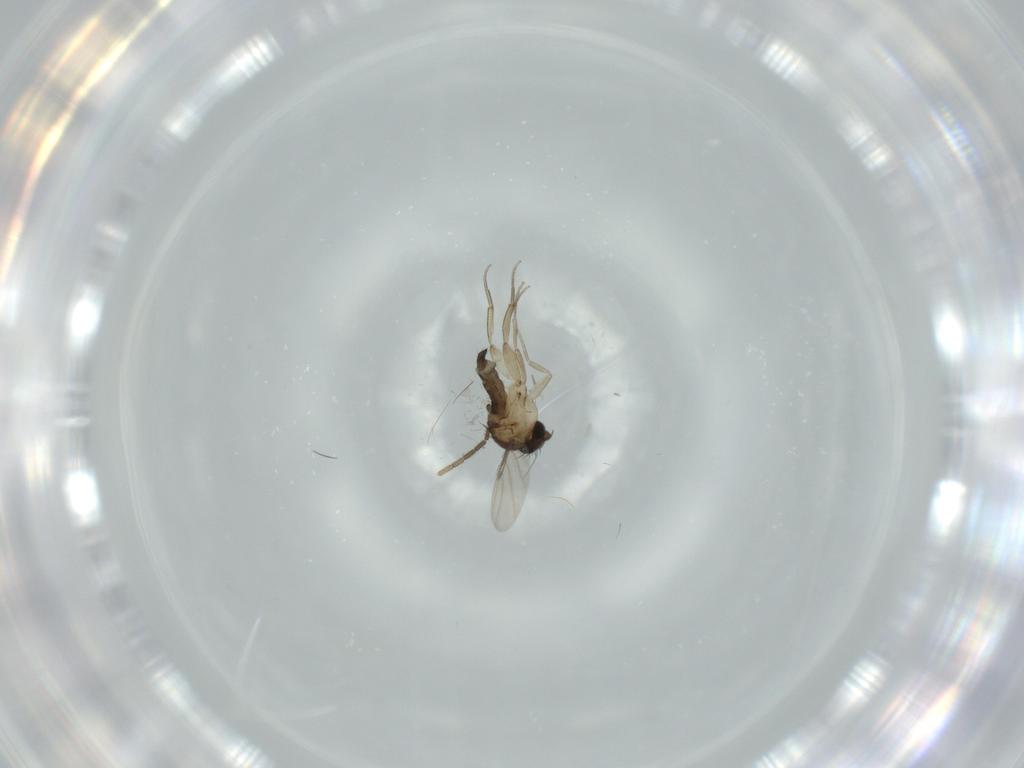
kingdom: Animalia
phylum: Arthropoda
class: Insecta
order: Diptera
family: Phoridae
